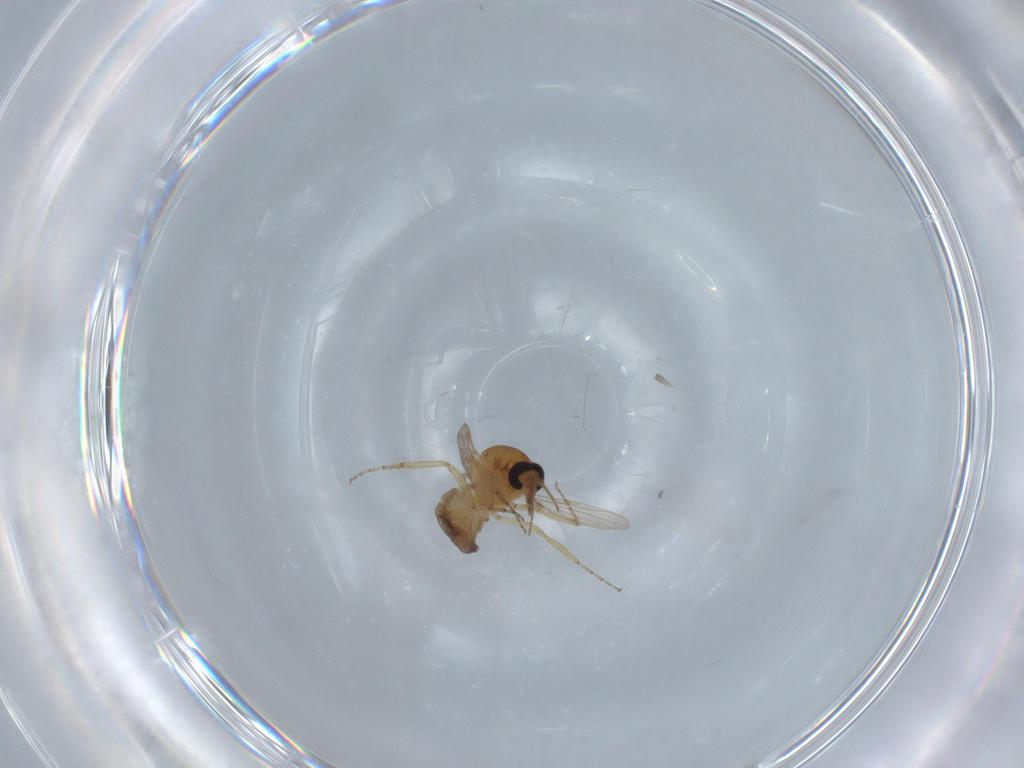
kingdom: Animalia
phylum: Arthropoda
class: Insecta
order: Diptera
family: Ceratopogonidae
